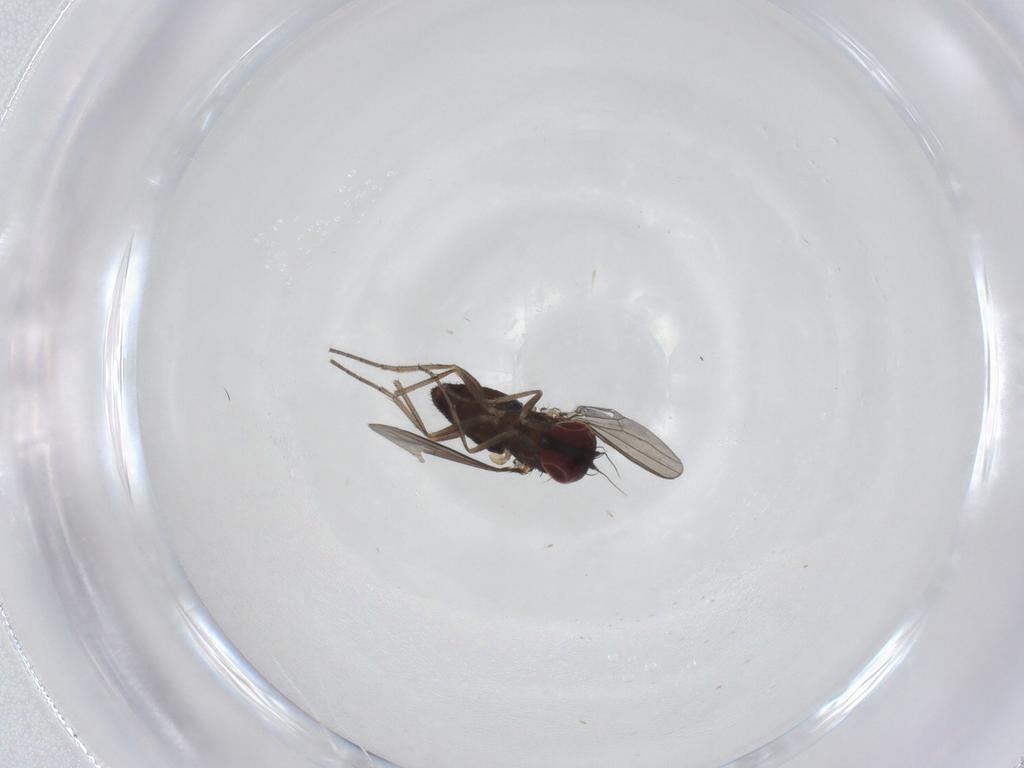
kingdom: Animalia
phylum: Arthropoda
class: Insecta
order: Diptera
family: Dolichopodidae
